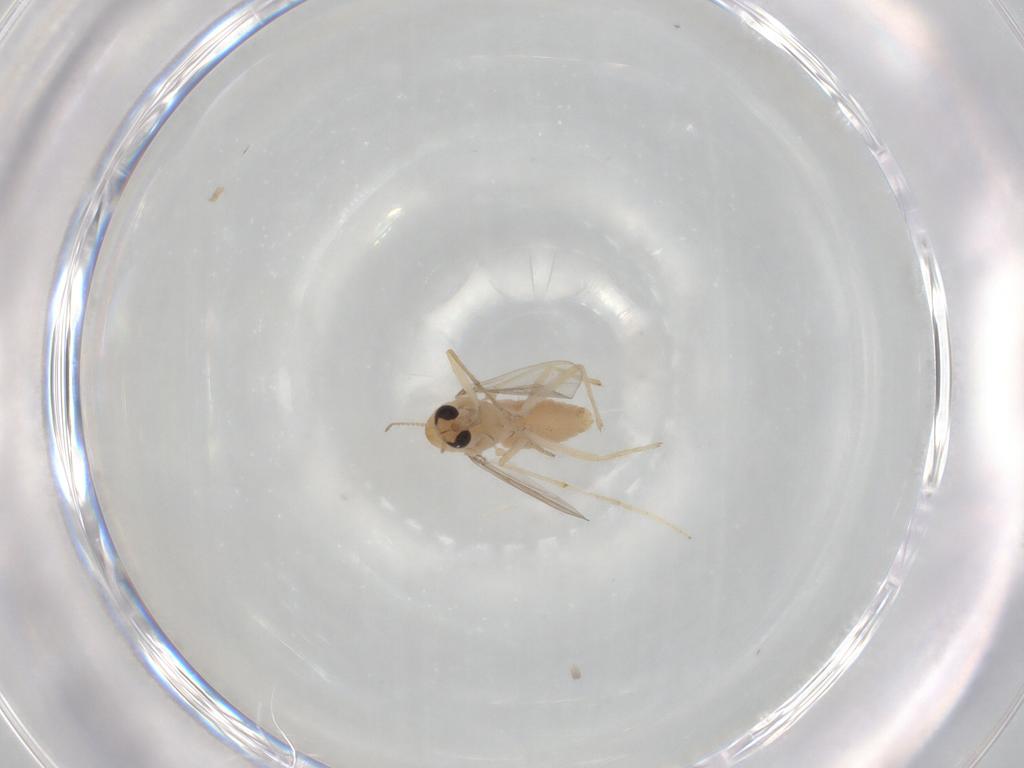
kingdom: Animalia
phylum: Arthropoda
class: Insecta
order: Diptera
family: Chironomidae
